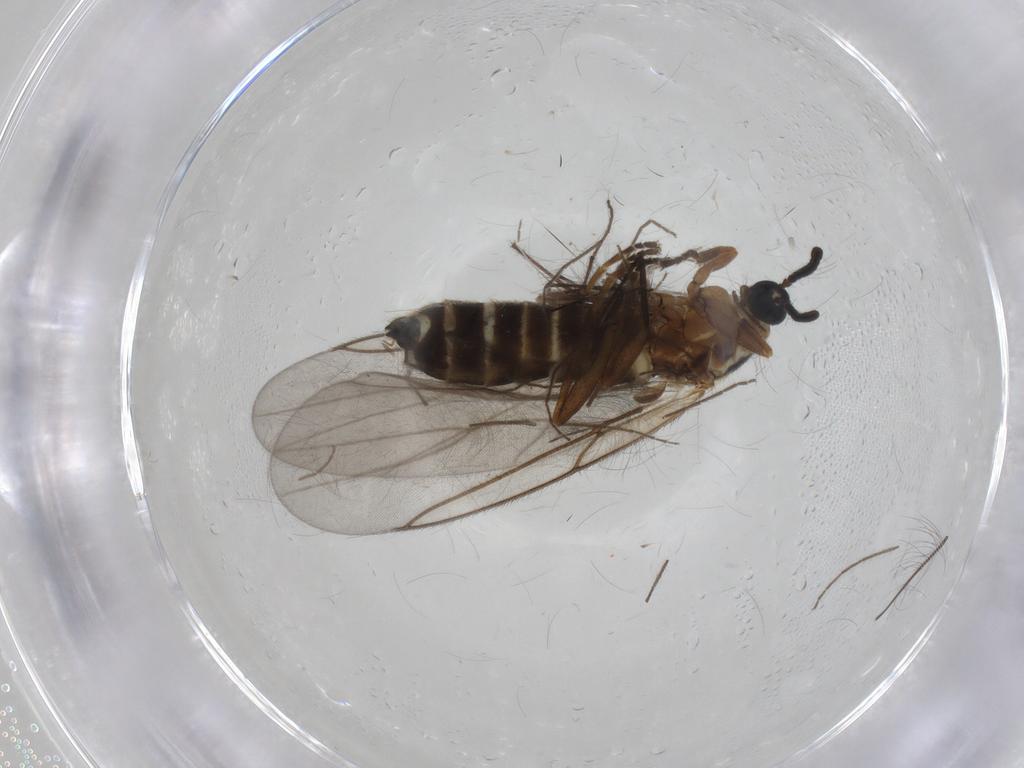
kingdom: Animalia
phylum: Arthropoda
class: Insecta
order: Diptera
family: Scatopsidae
